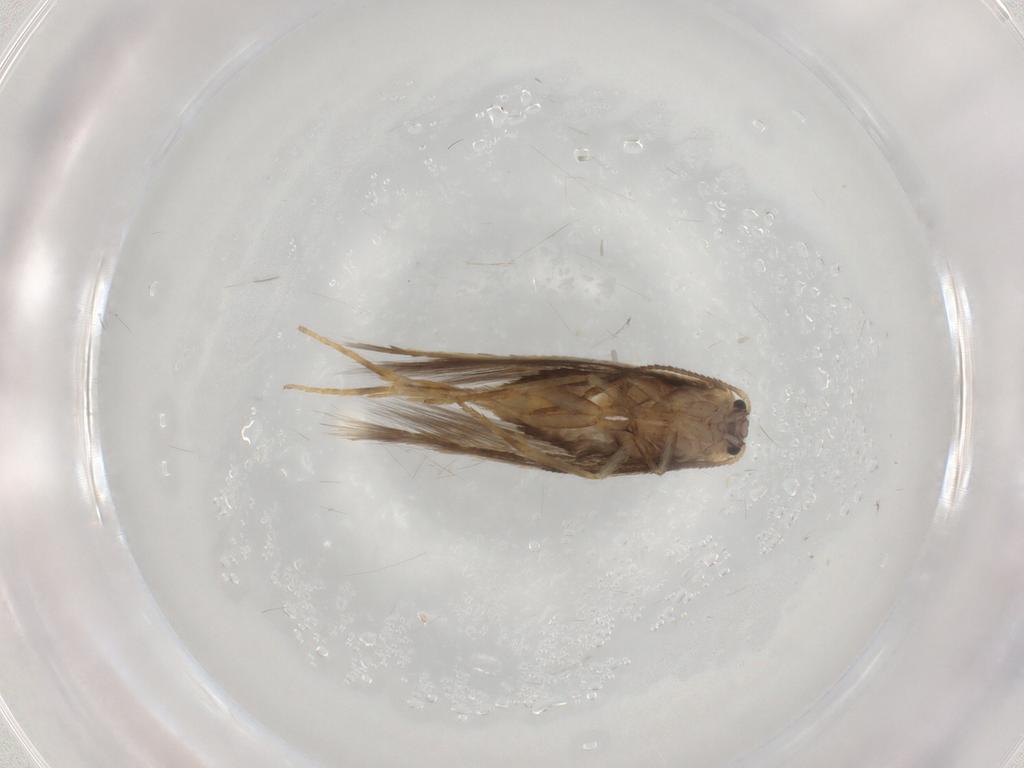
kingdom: Animalia
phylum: Arthropoda
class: Insecta
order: Lepidoptera
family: Nepticulidae
